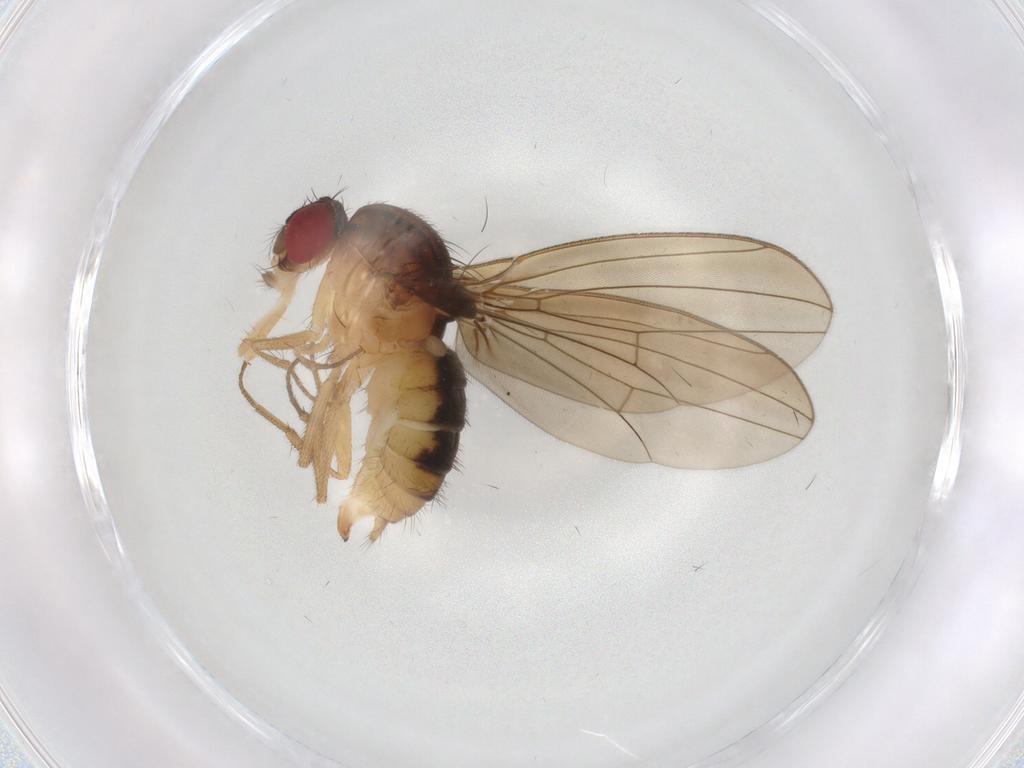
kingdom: Animalia
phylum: Arthropoda
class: Insecta
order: Diptera
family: Drosophilidae
